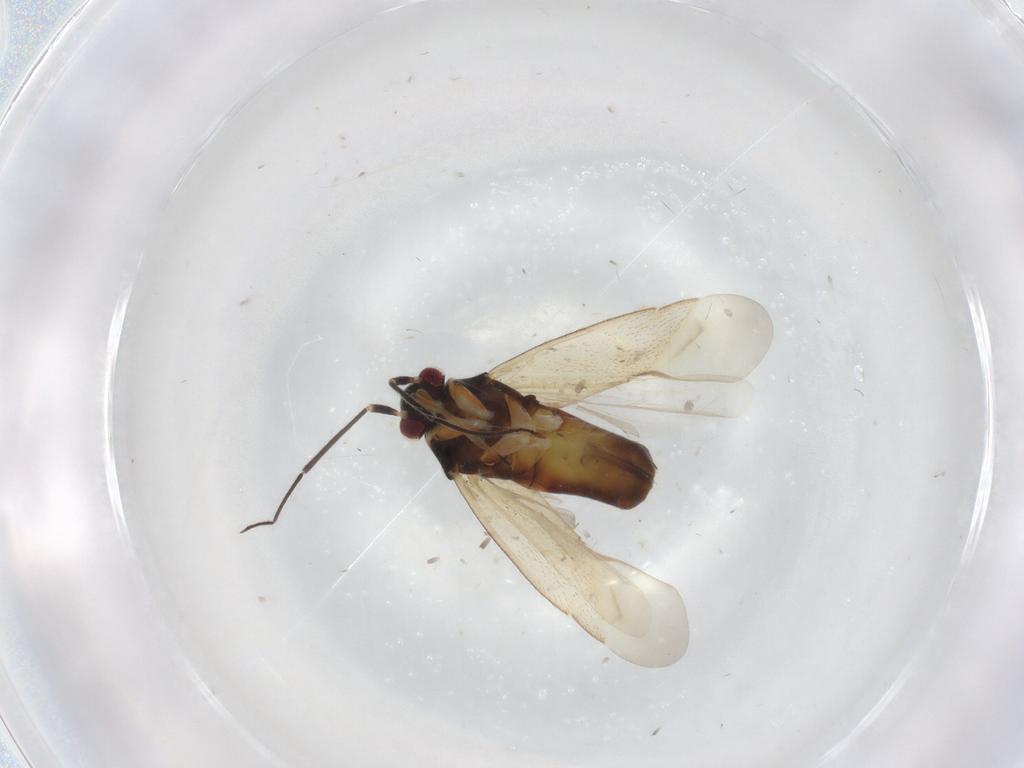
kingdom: Animalia
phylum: Arthropoda
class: Insecta
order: Hemiptera
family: Miridae
